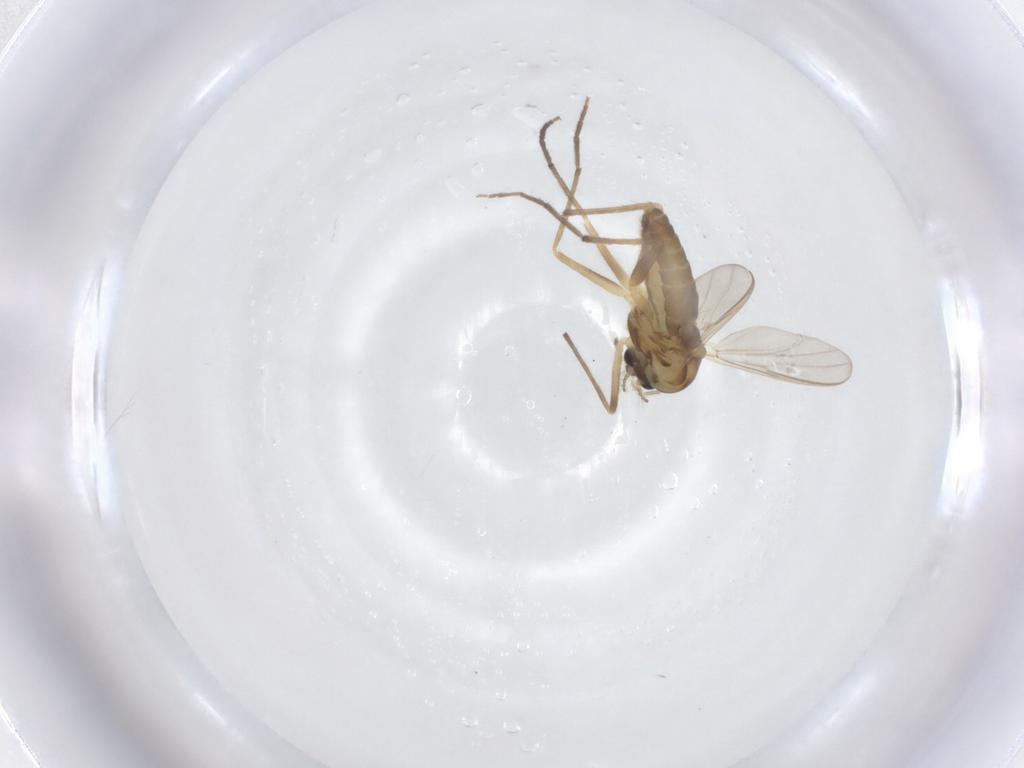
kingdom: Animalia
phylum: Arthropoda
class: Insecta
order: Diptera
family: Chironomidae
